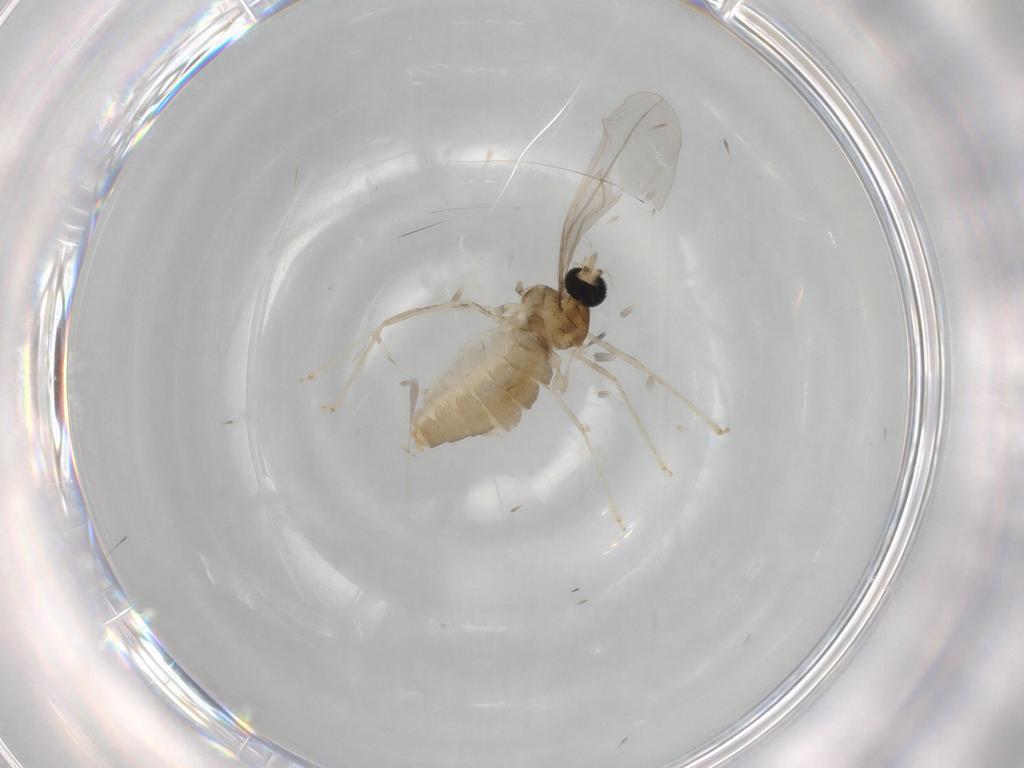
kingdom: Animalia
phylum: Arthropoda
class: Insecta
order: Diptera
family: Cecidomyiidae
